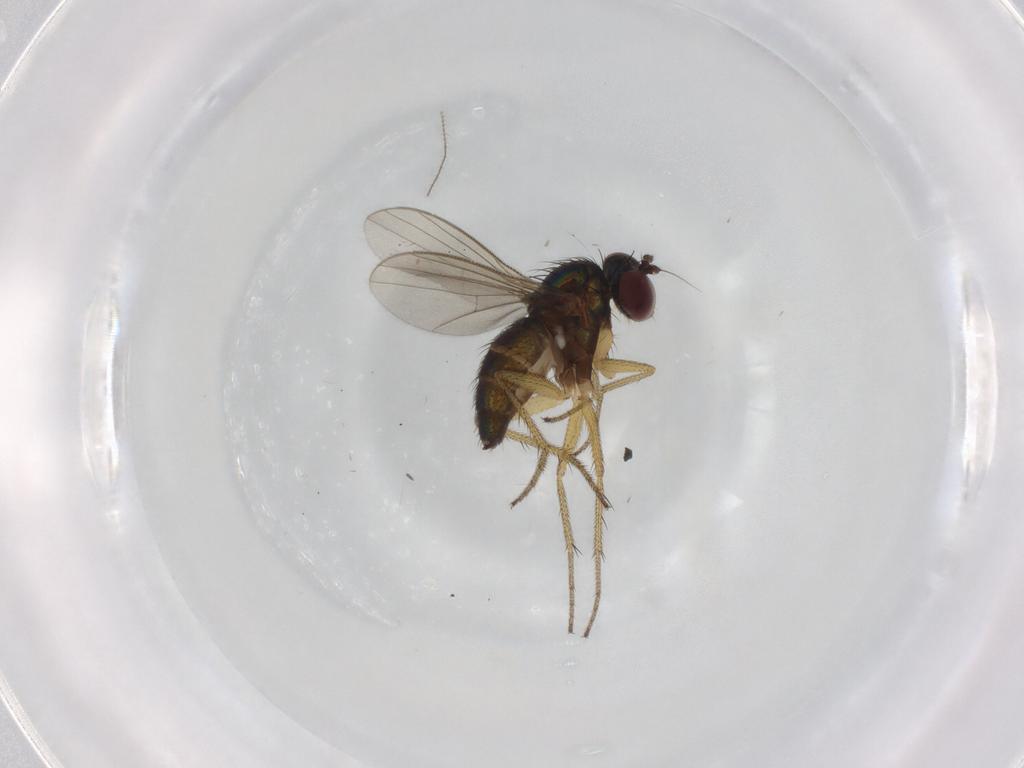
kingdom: Animalia
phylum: Arthropoda
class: Insecta
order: Diptera
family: Dolichopodidae
